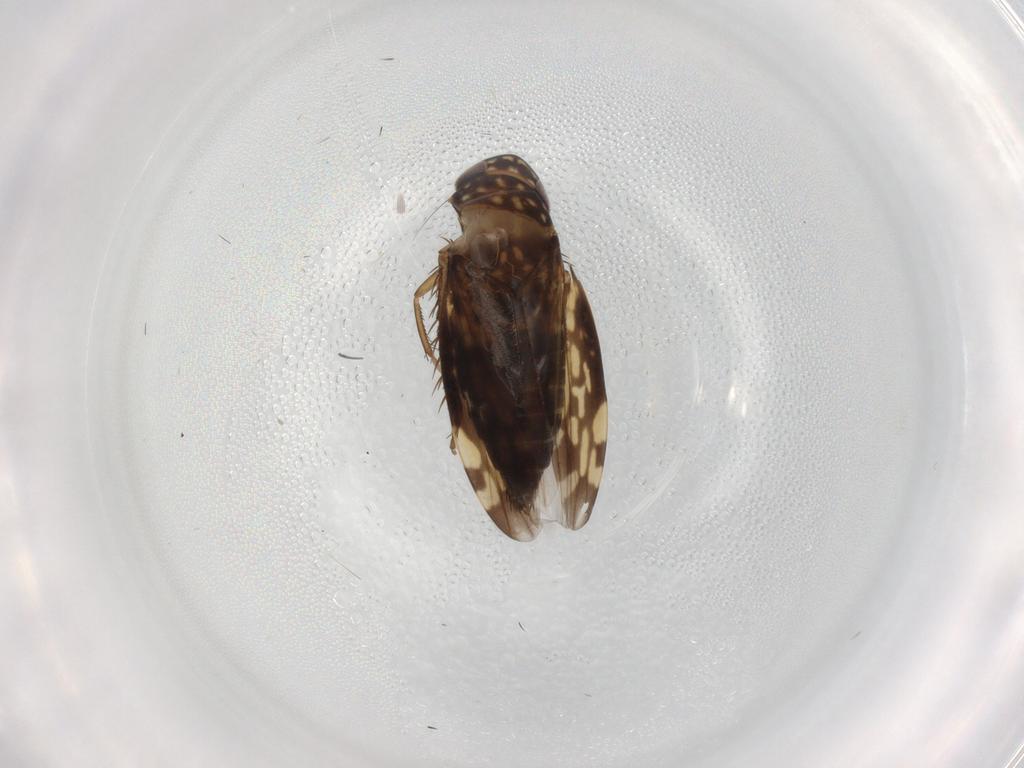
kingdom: Animalia
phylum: Arthropoda
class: Insecta
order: Hemiptera
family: Cicadellidae
